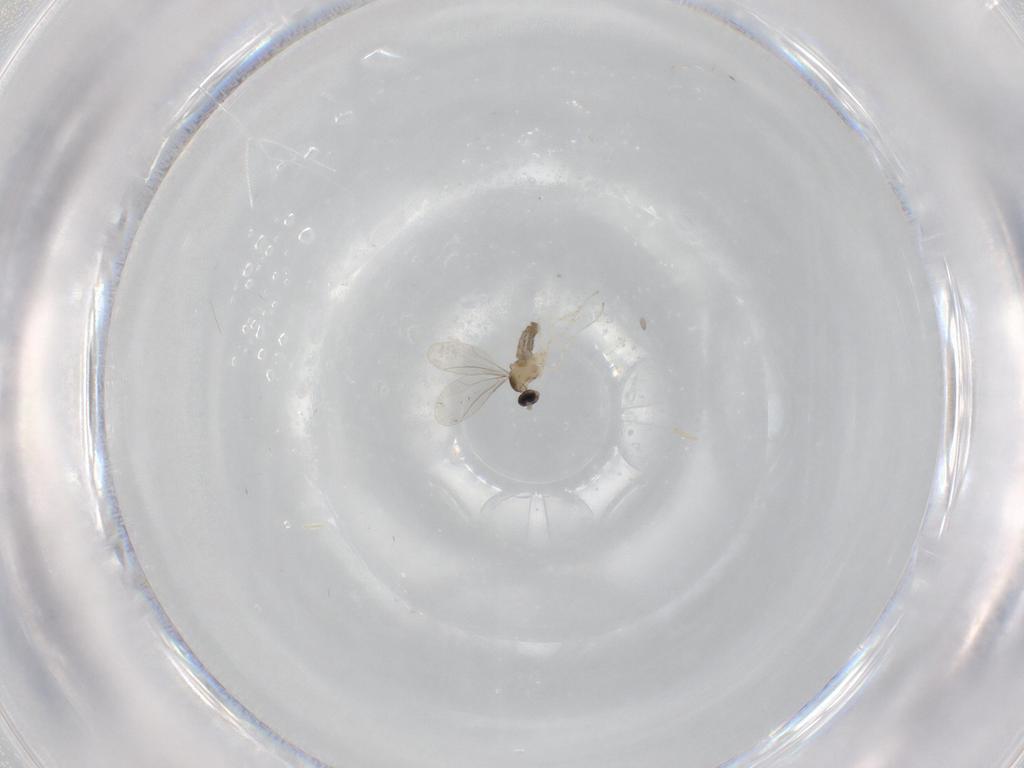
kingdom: Animalia
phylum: Arthropoda
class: Insecta
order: Diptera
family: Cecidomyiidae
